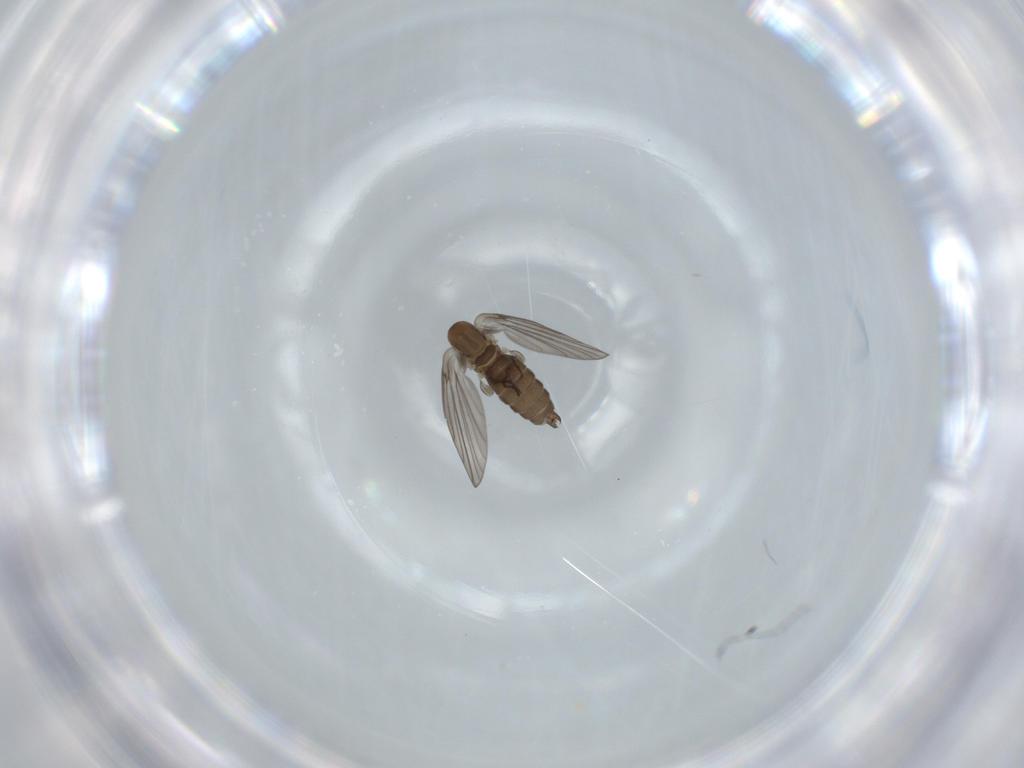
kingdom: Animalia
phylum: Arthropoda
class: Insecta
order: Diptera
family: Psychodidae
